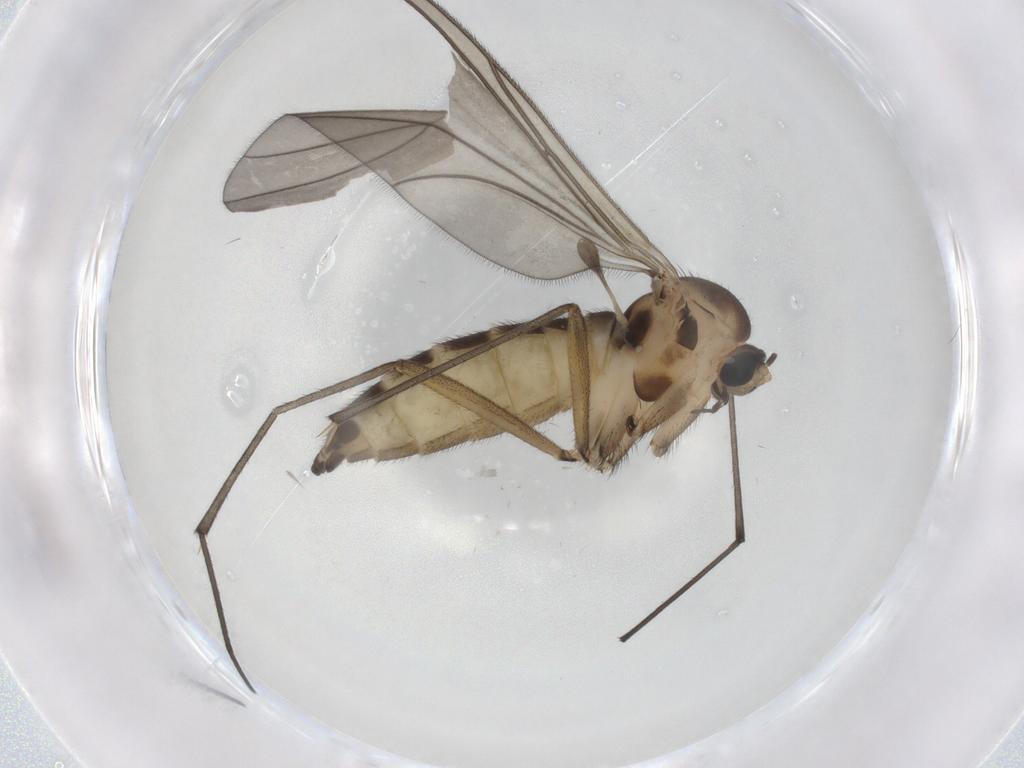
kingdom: Animalia
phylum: Arthropoda
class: Insecta
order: Diptera
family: Sciaridae
